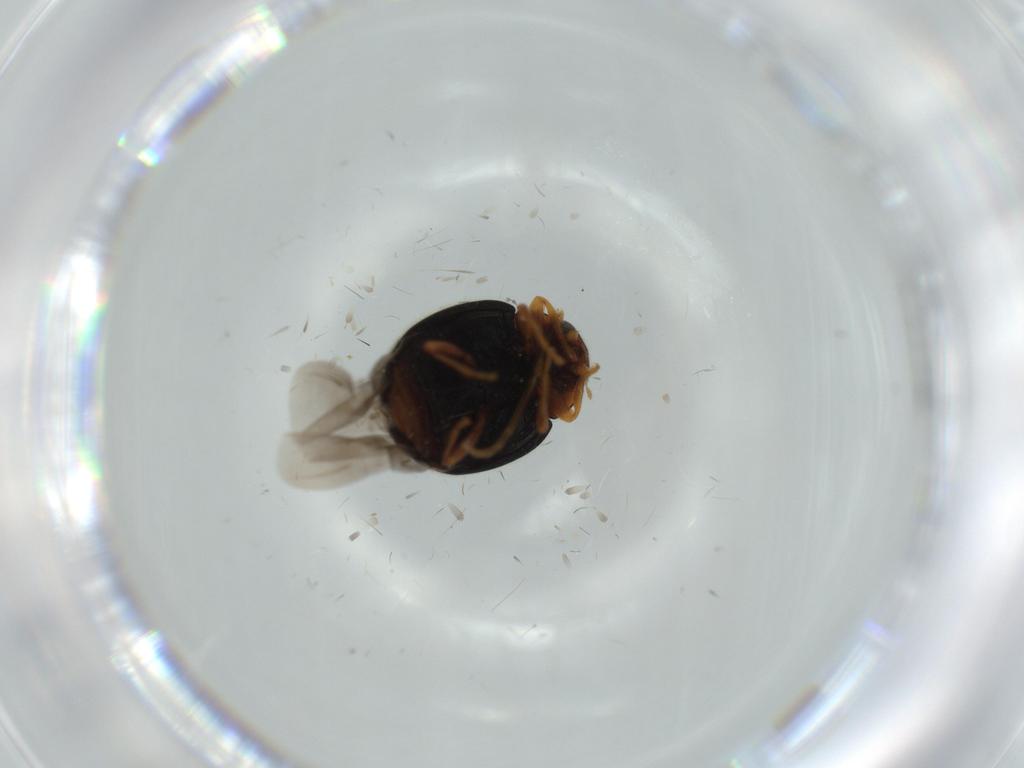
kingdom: Animalia
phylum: Arthropoda
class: Insecta
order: Coleoptera
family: Coccinellidae
